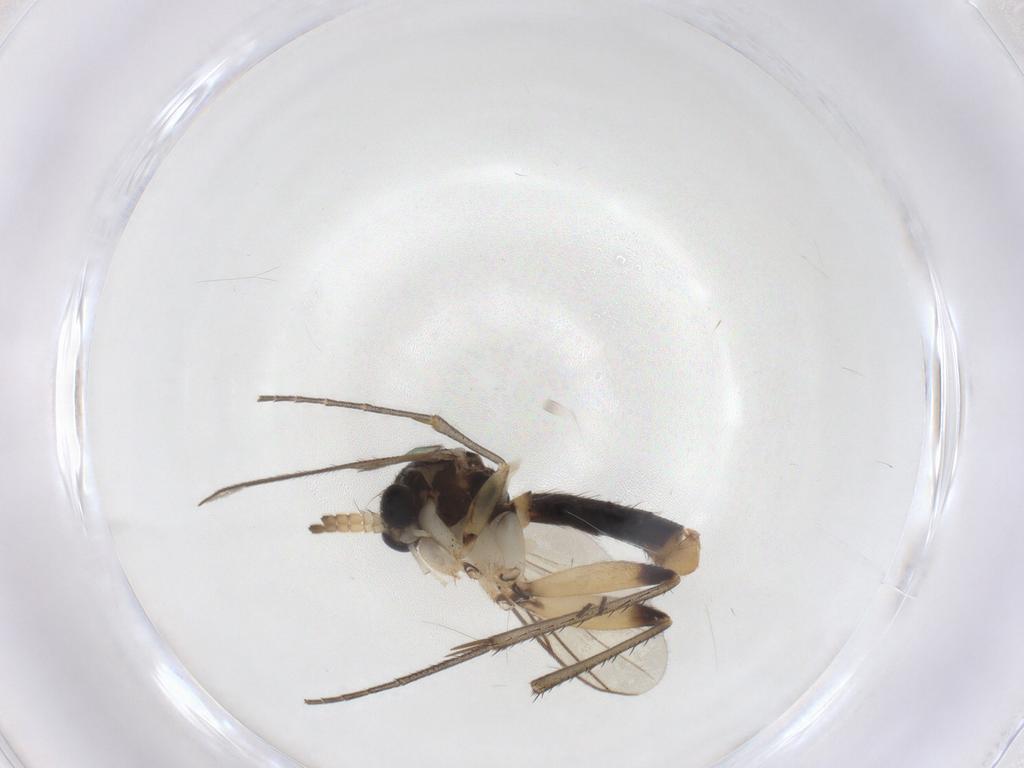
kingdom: Animalia
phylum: Arthropoda
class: Insecta
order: Diptera
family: Mycetophilidae
